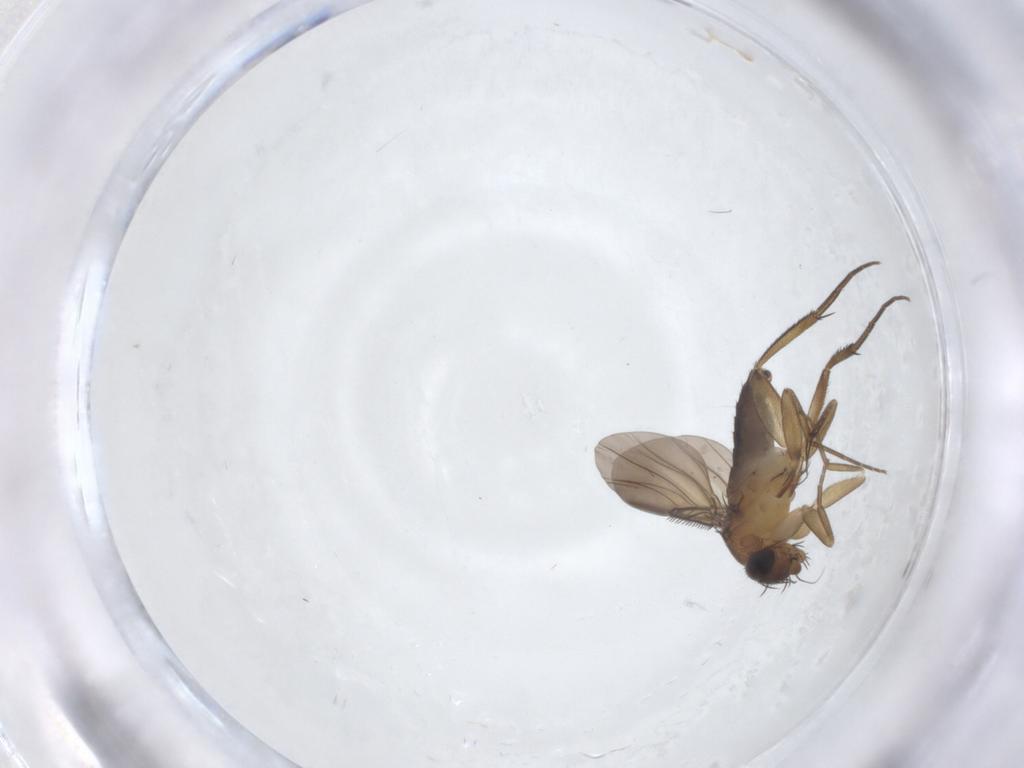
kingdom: Animalia
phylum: Arthropoda
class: Insecta
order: Diptera
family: Phoridae
